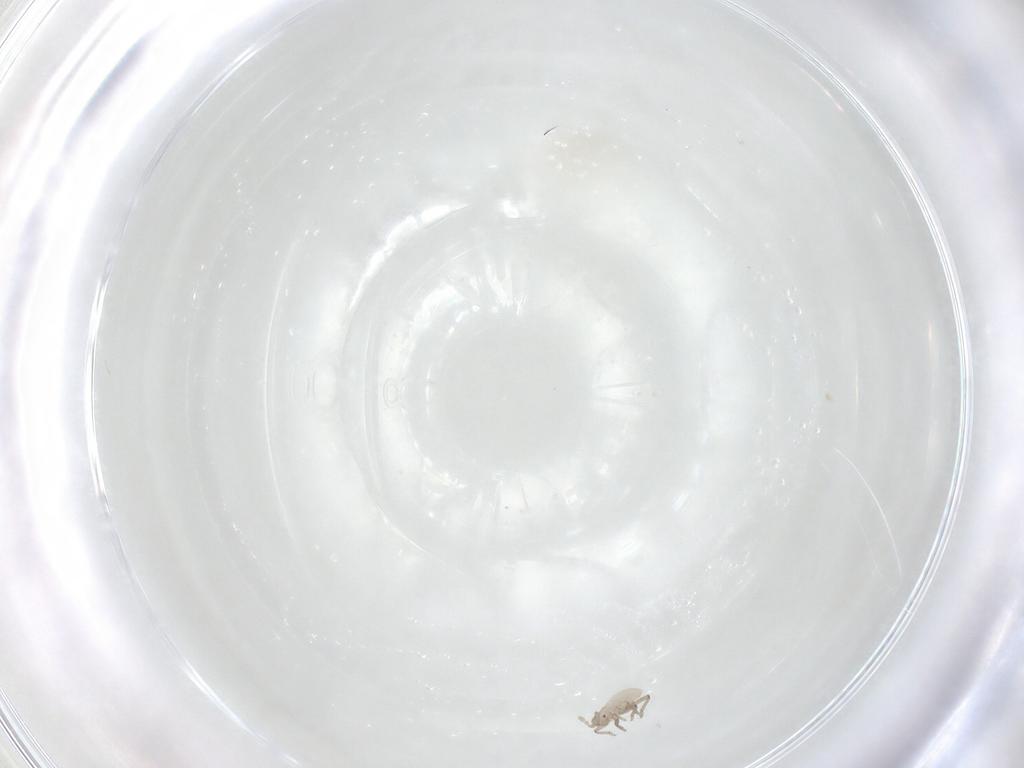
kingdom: Animalia
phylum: Arthropoda
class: Insecta
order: Hemiptera
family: Aphididae
